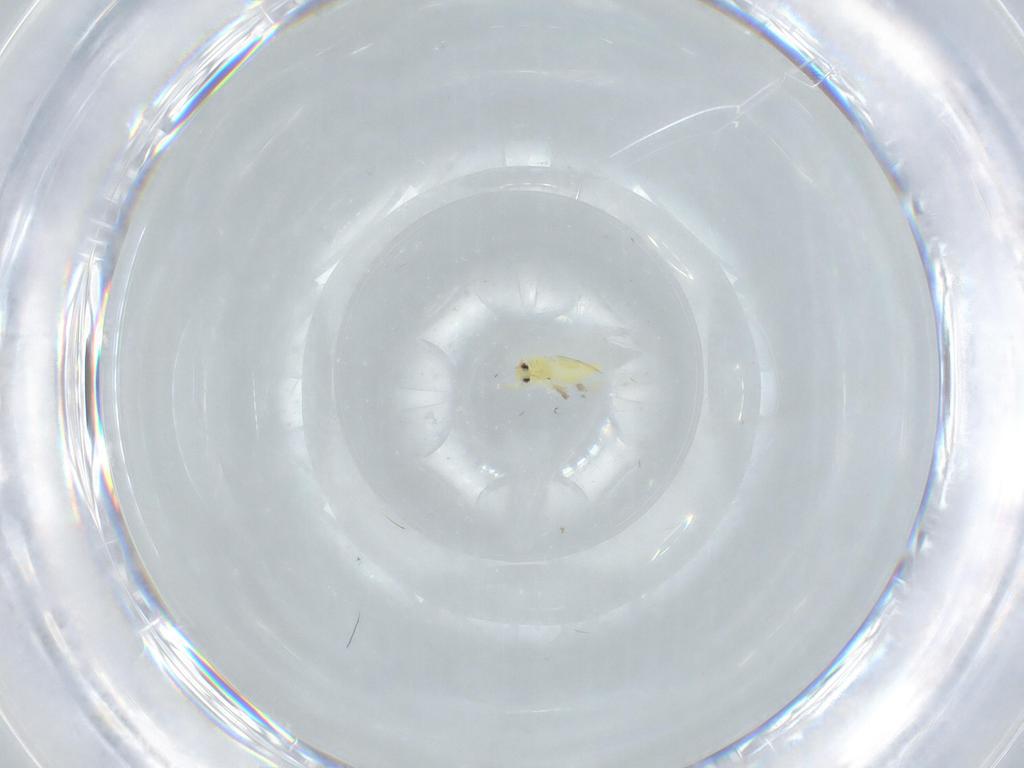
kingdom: Animalia
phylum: Arthropoda
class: Insecta
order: Hemiptera
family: Aleyrodidae
